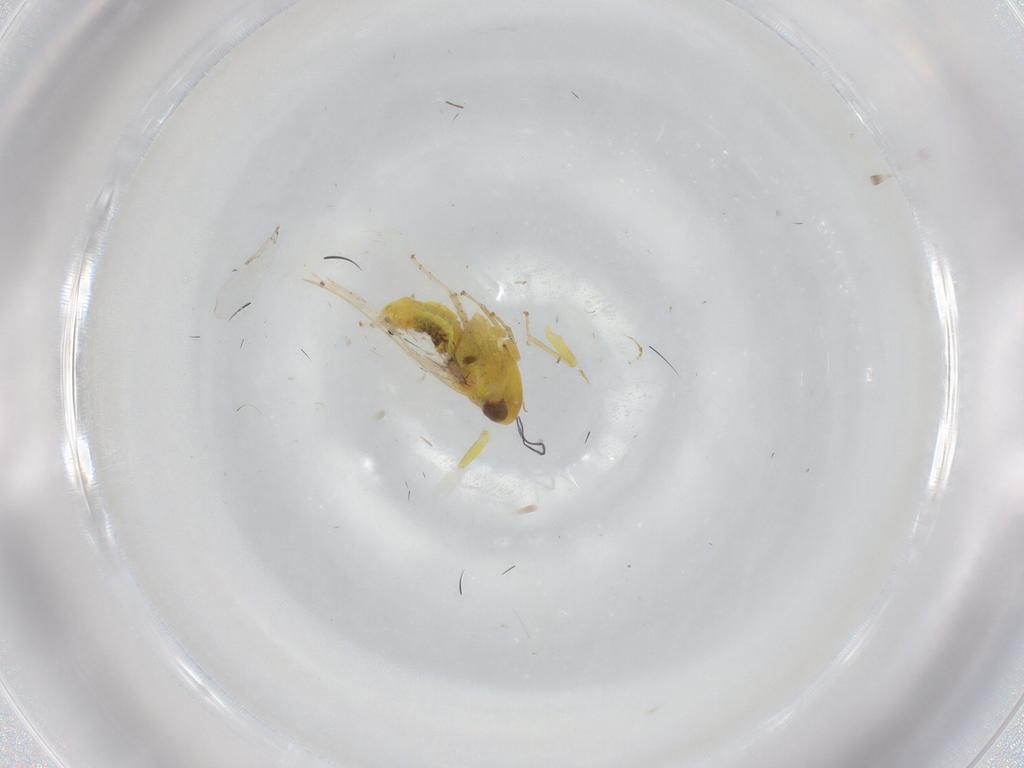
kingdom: Animalia
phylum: Arthropoda
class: Insecta
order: Hemiptera
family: Cicadellidae
